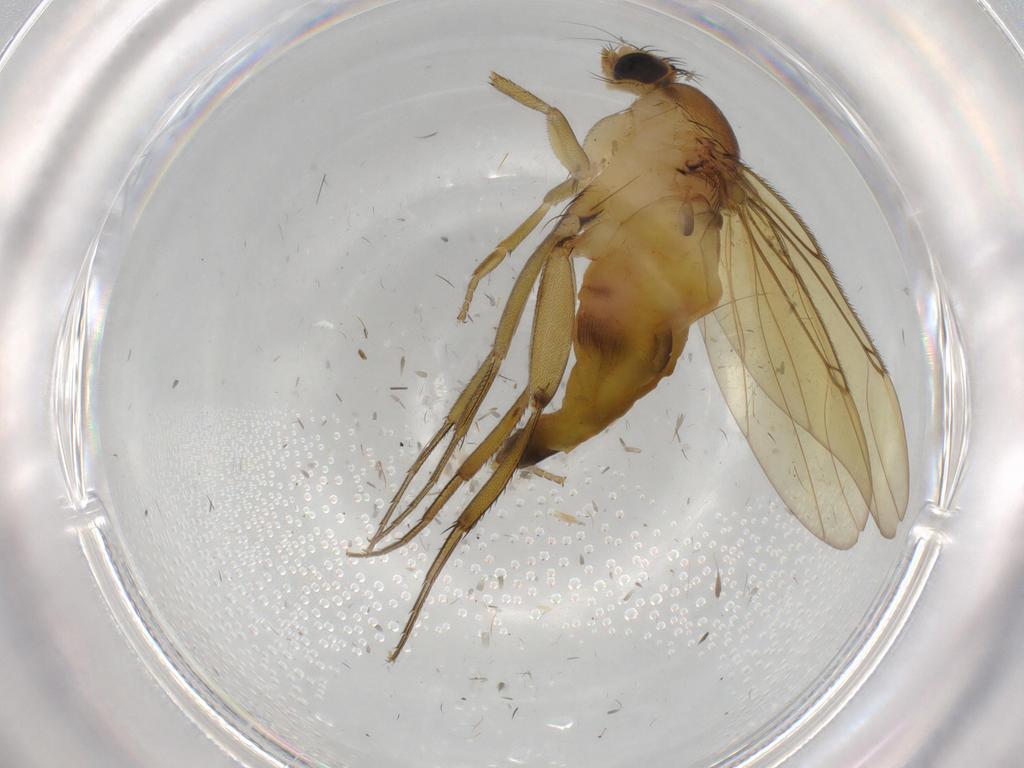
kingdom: Animalia
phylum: Arthropoda
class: Insecta
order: Diptera
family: Phoridae
